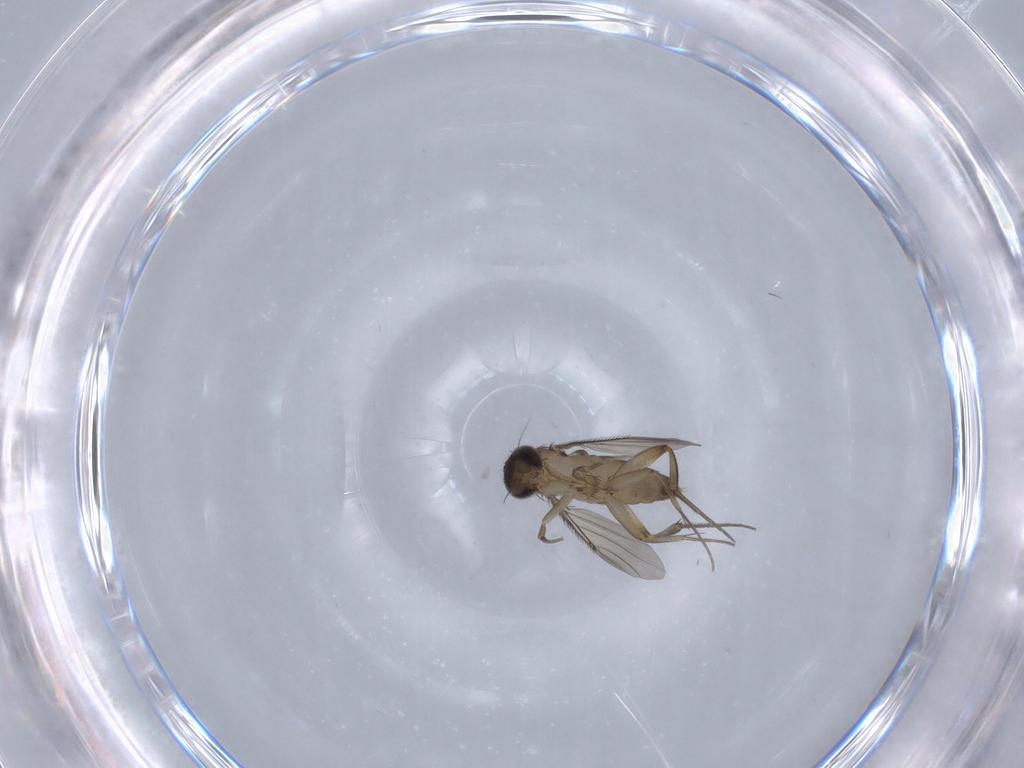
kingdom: Animalia
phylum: Arthropoda
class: Insecta
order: Diptera
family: Phoridae
